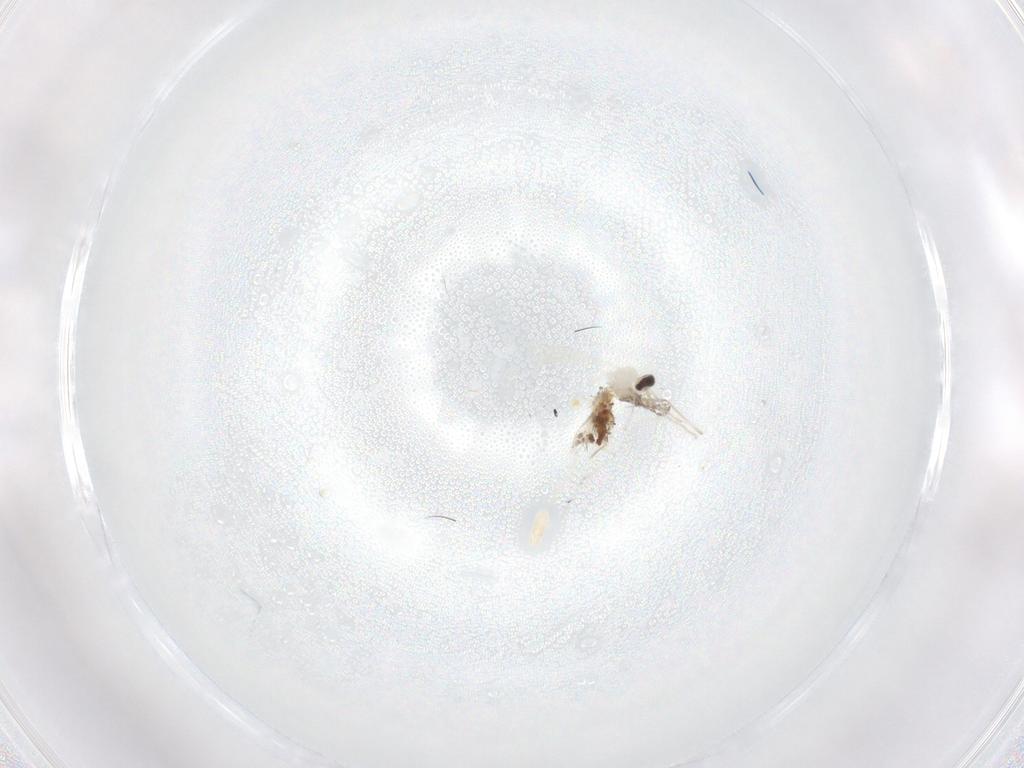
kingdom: Animalia
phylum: Arthropoda
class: Insecta
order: Diptera
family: Cecidomyiidae
